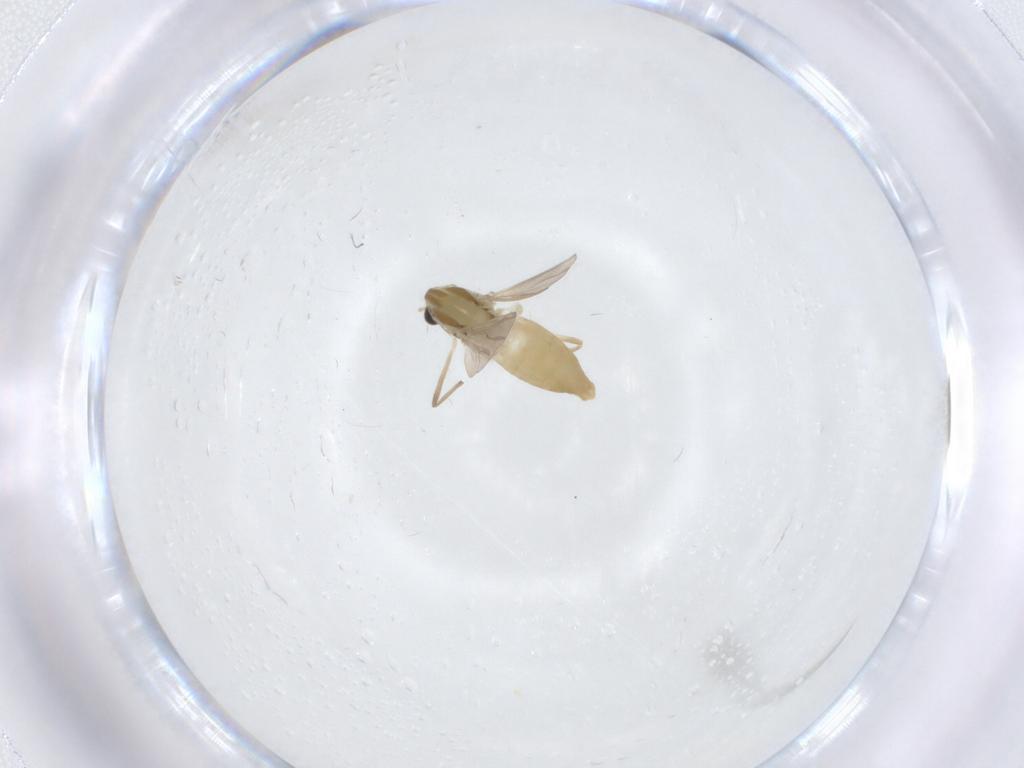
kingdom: Animalia
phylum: Arthropoda
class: Insecta
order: Diptera
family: Chironomidae
